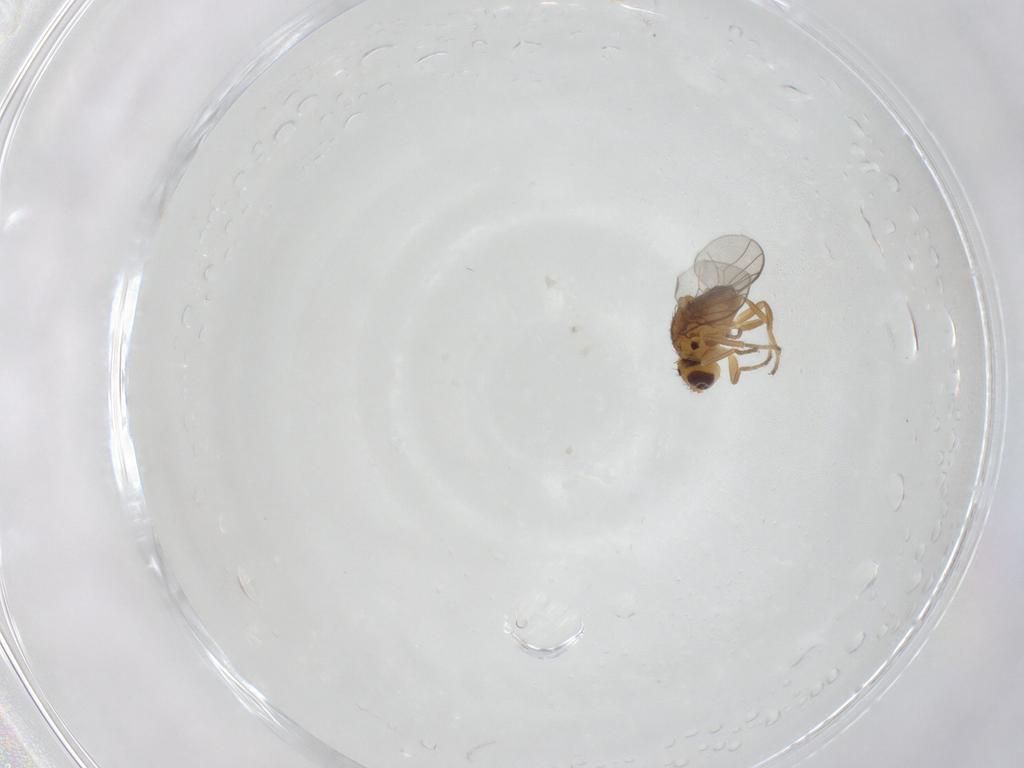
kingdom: Animalia
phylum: Arthropoda
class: Insecta
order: Diptera
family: Chloropidae
